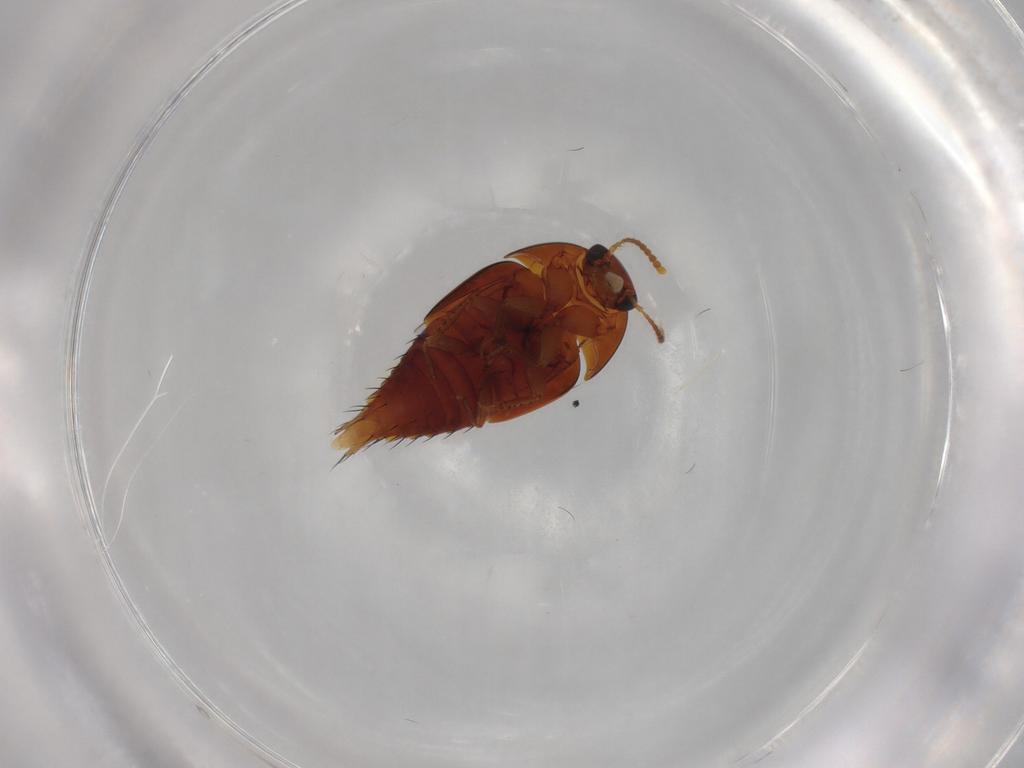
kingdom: Animalia
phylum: Arthropoda
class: Insecta
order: Coleoptera
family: Staphylinidae
